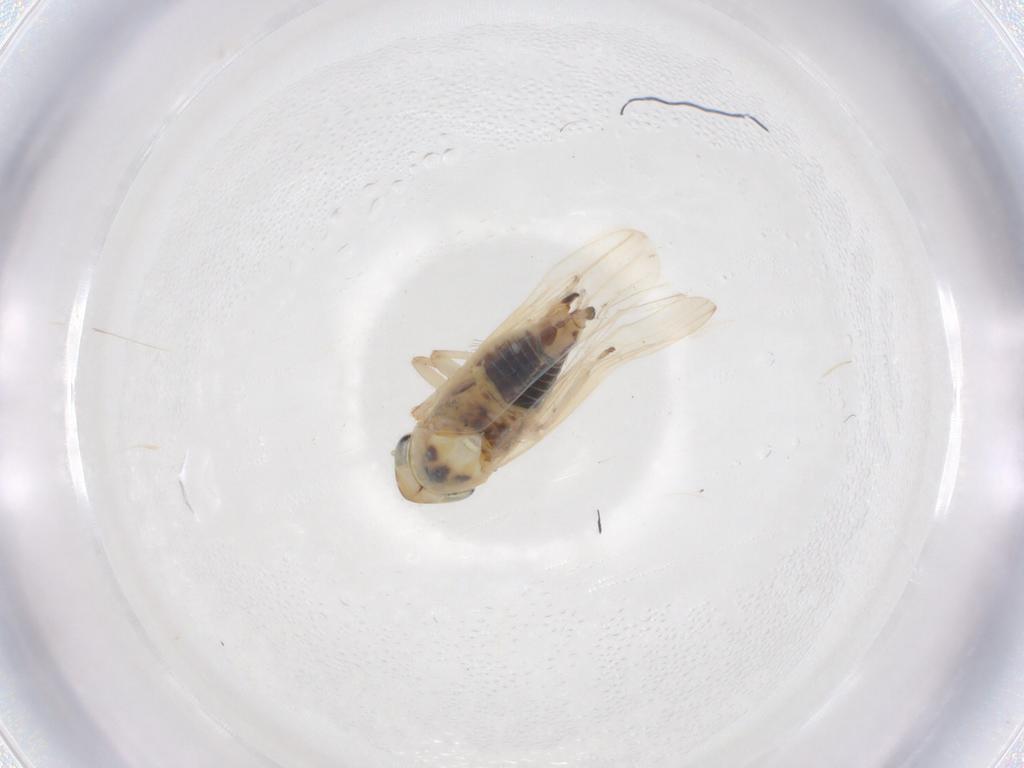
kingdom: Animalia
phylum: Arthropoda
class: Insecta
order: Hemiptera
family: Cicadellidae
